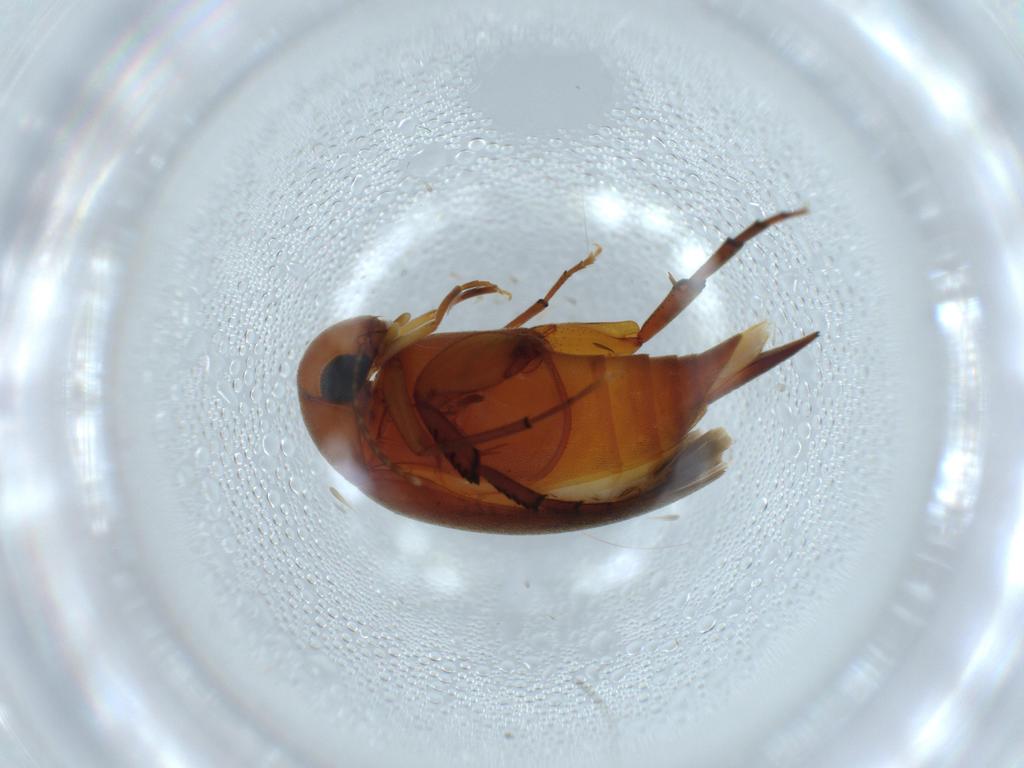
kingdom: Animalia
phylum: Arthropoda
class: Insecta
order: Coleoptera
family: Mordellidae
